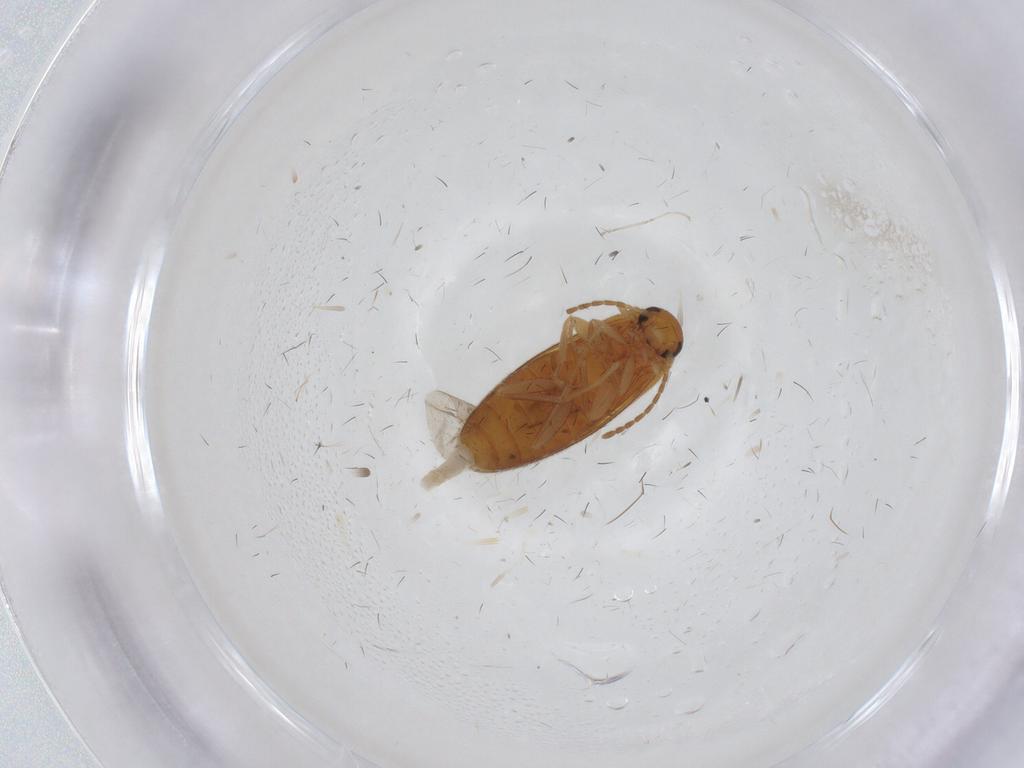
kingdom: Animalia
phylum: Arthropoda
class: Insecta
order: Coleoptera
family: Scraptiidae
